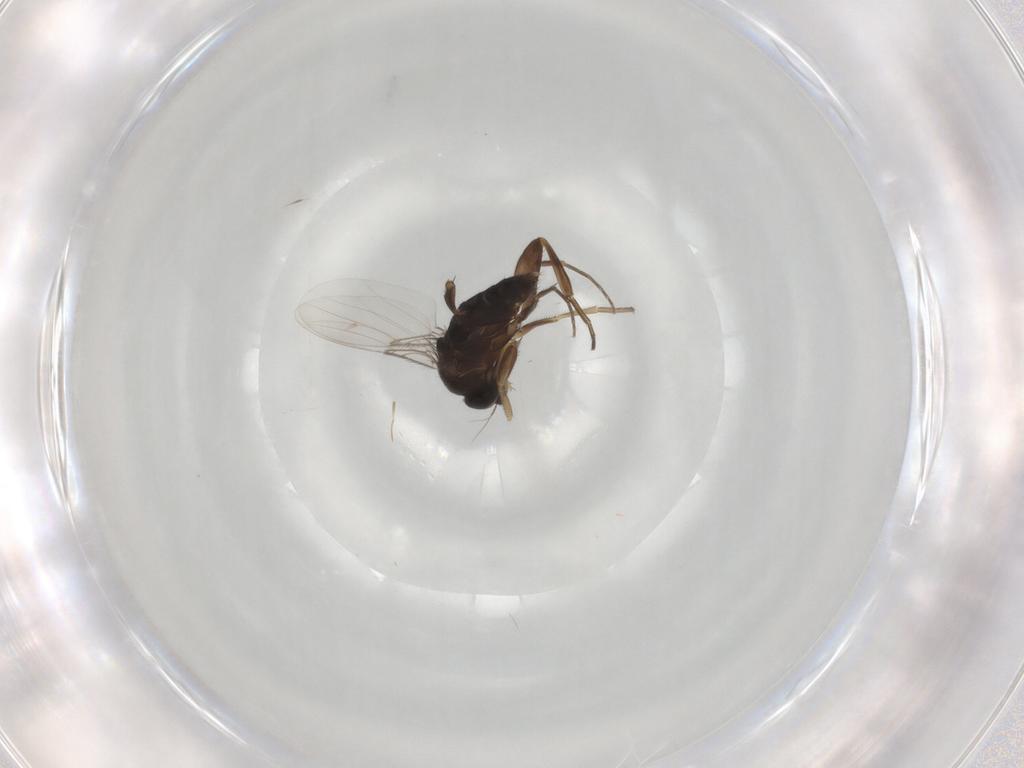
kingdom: Animalia
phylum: Arthropoda
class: Insecta
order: Diptera
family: Phoridae
